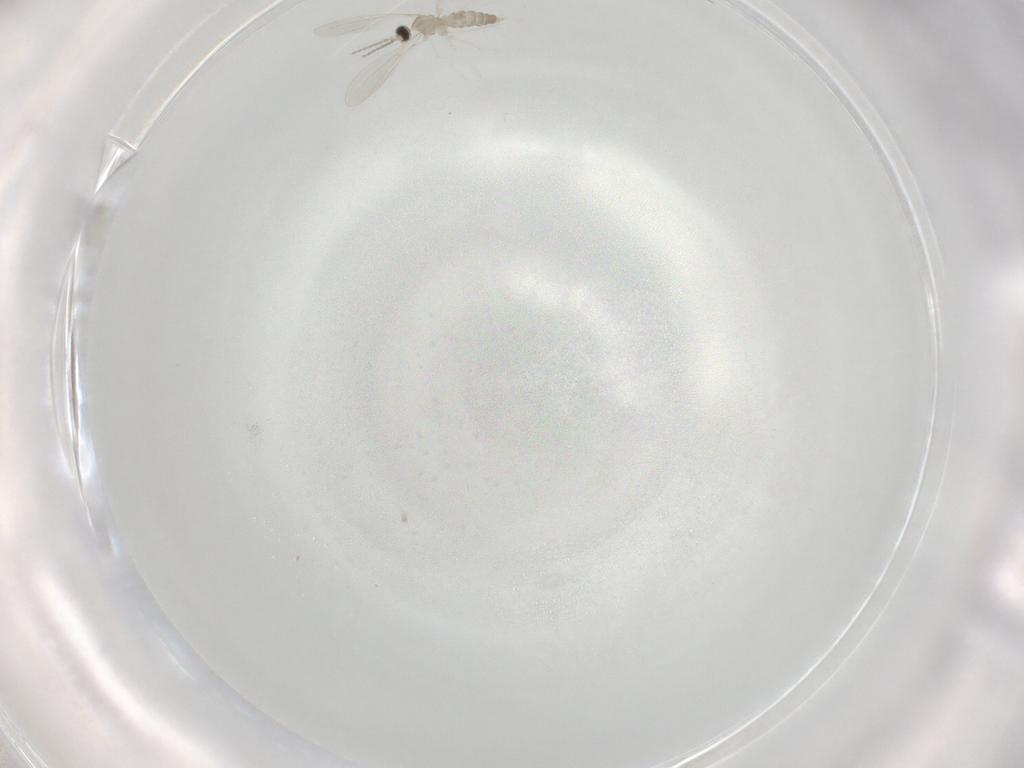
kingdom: Animalia
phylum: Arthropoda
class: Insecta
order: Diptera
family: Cecidomyiidae
